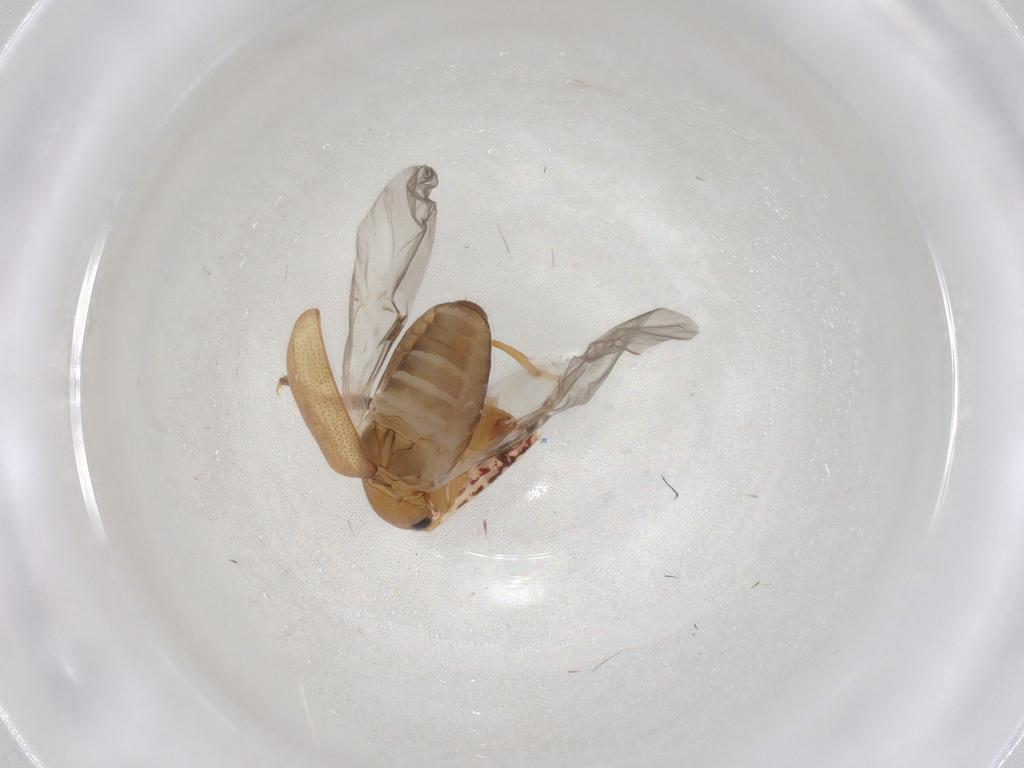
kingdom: Animalia
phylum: Arthropoda
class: Insecta
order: Coleoptera
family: Chrysomelidae
